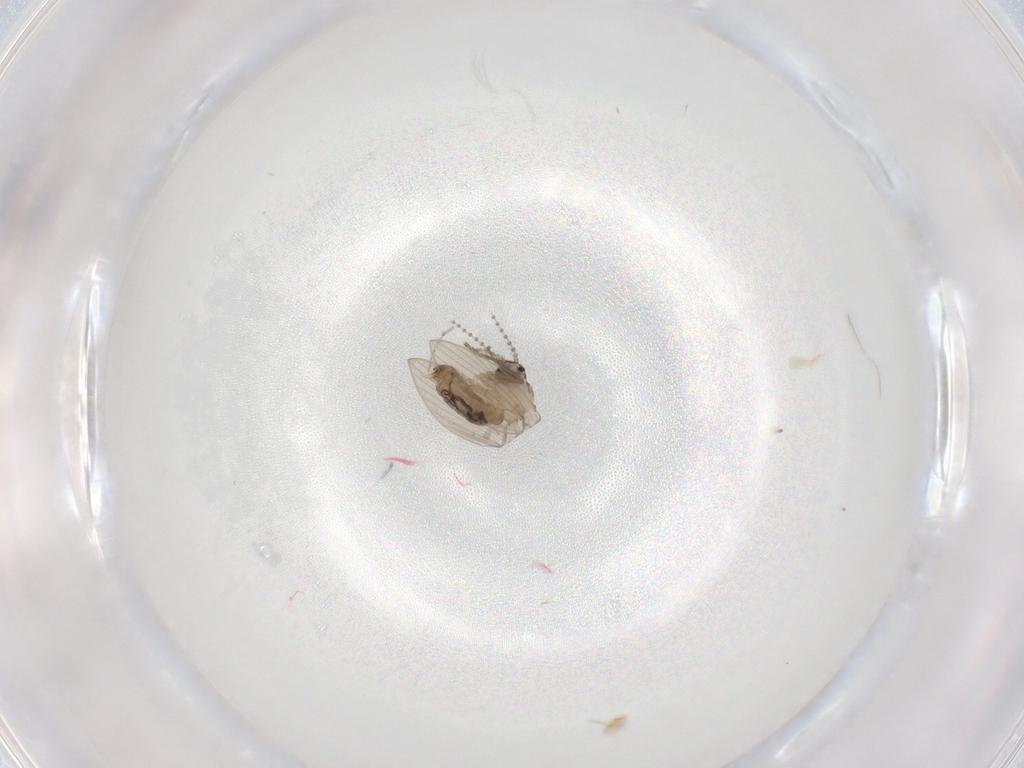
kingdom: Animalia
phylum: Arthropoda
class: Insecta
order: Diptera
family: Psychodidae
